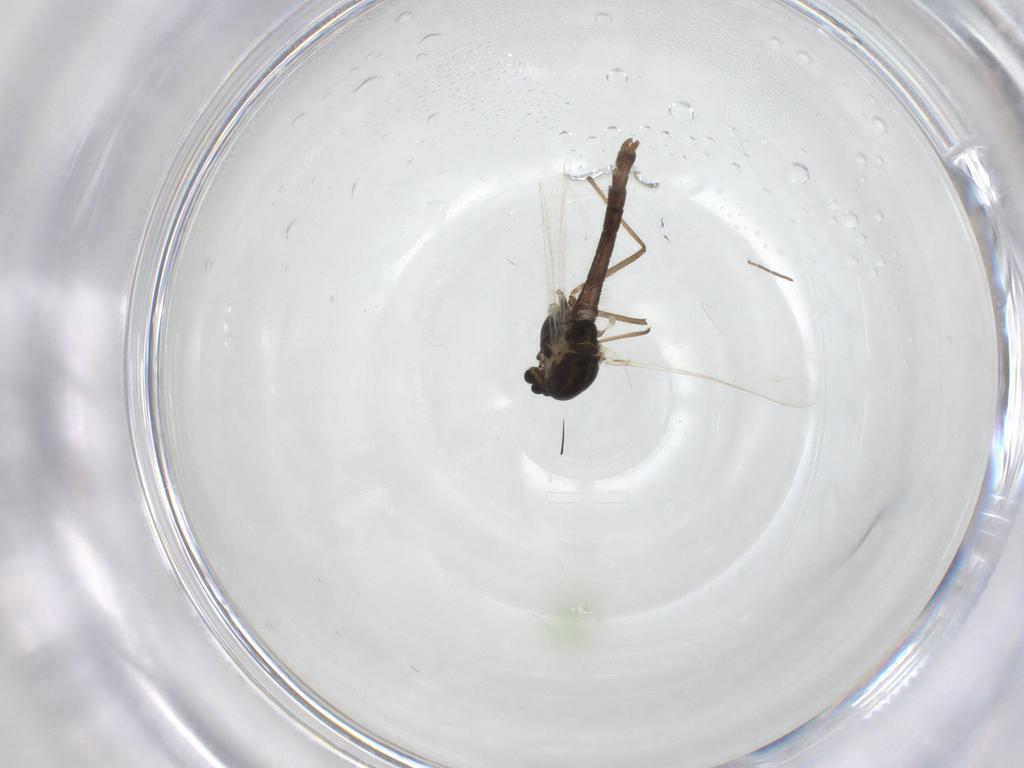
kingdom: Animalia
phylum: Arthropoda
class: Insecta
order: Diptera
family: Chironomidae
